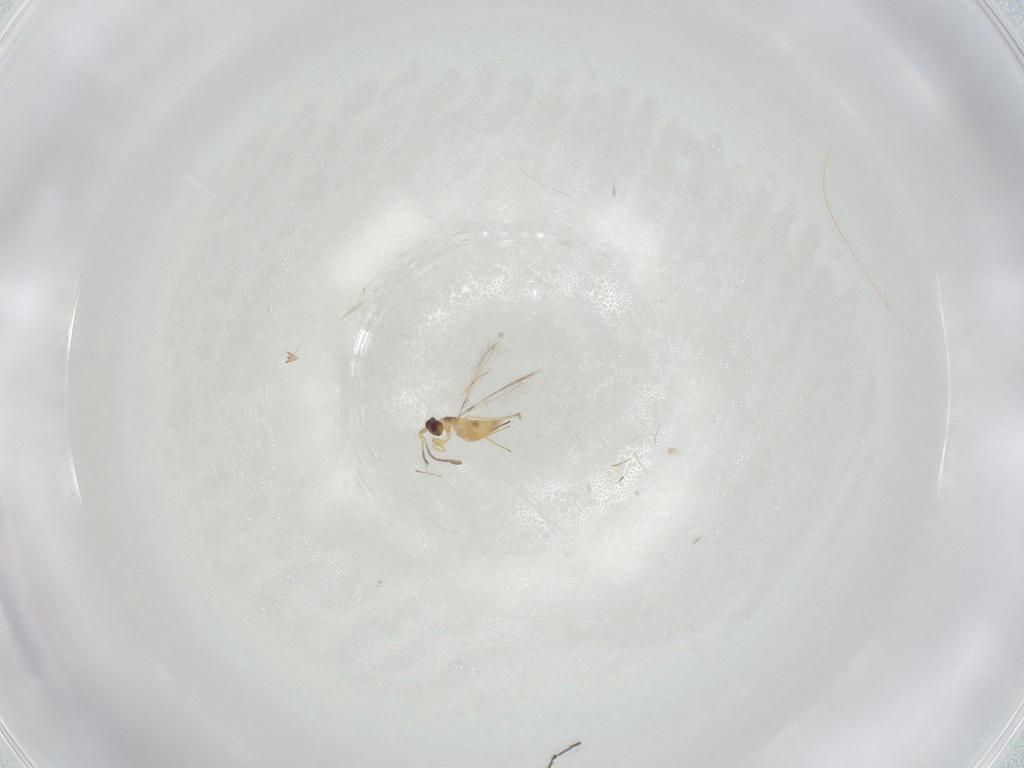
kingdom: Animalia
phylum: Arthropoda
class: Insecta
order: Hymenoptera
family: Mymaridae
